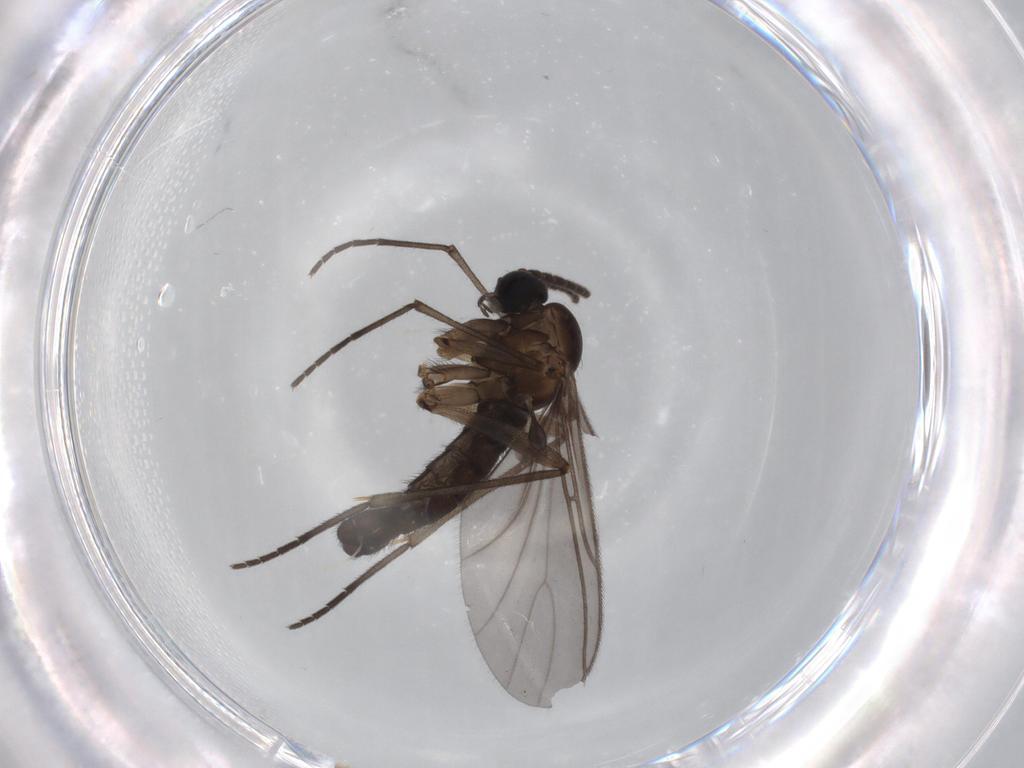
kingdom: Animalia
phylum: Arthropoda
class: Insecta
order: Diptera
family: Sciaridae
